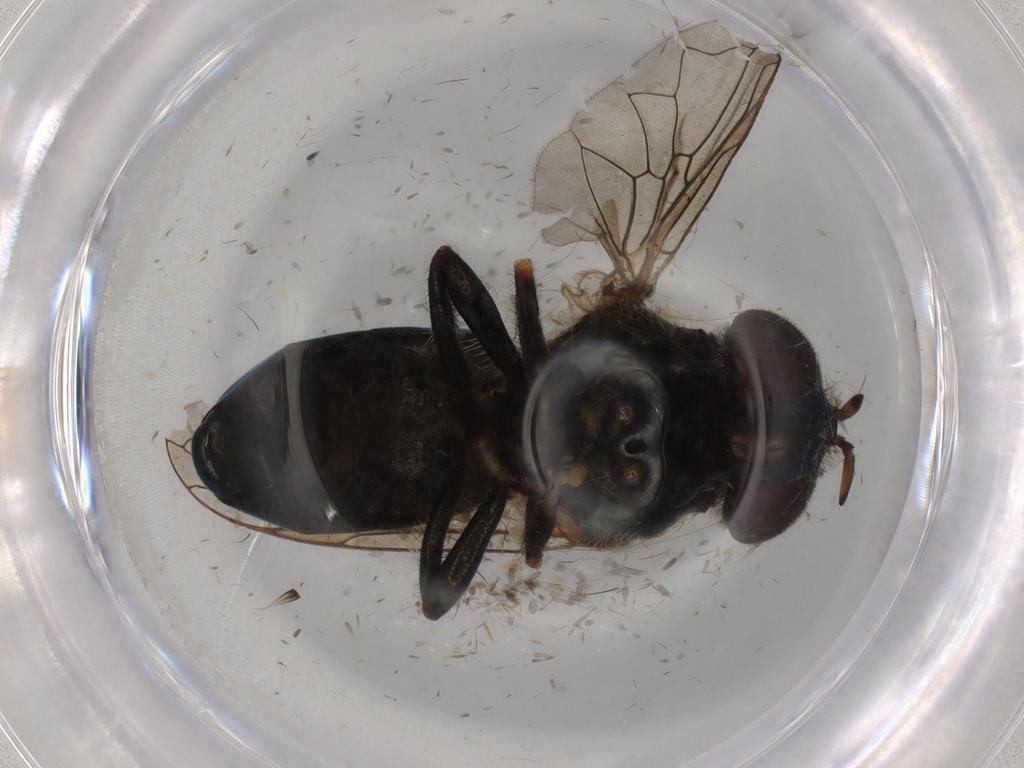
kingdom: Animalia
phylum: Arthropoda
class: Insecta
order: Diptera
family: Syrphidae
